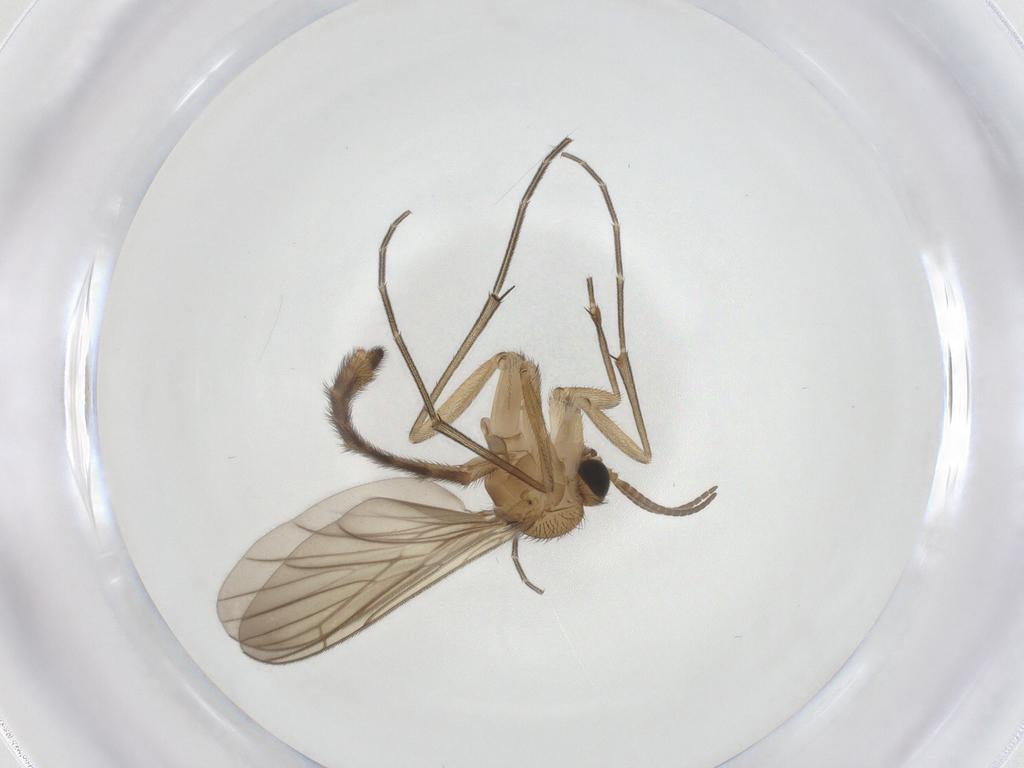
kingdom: Animalia
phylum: Arthropoda
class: Insecta
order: Diptera
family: Keroplatidae
